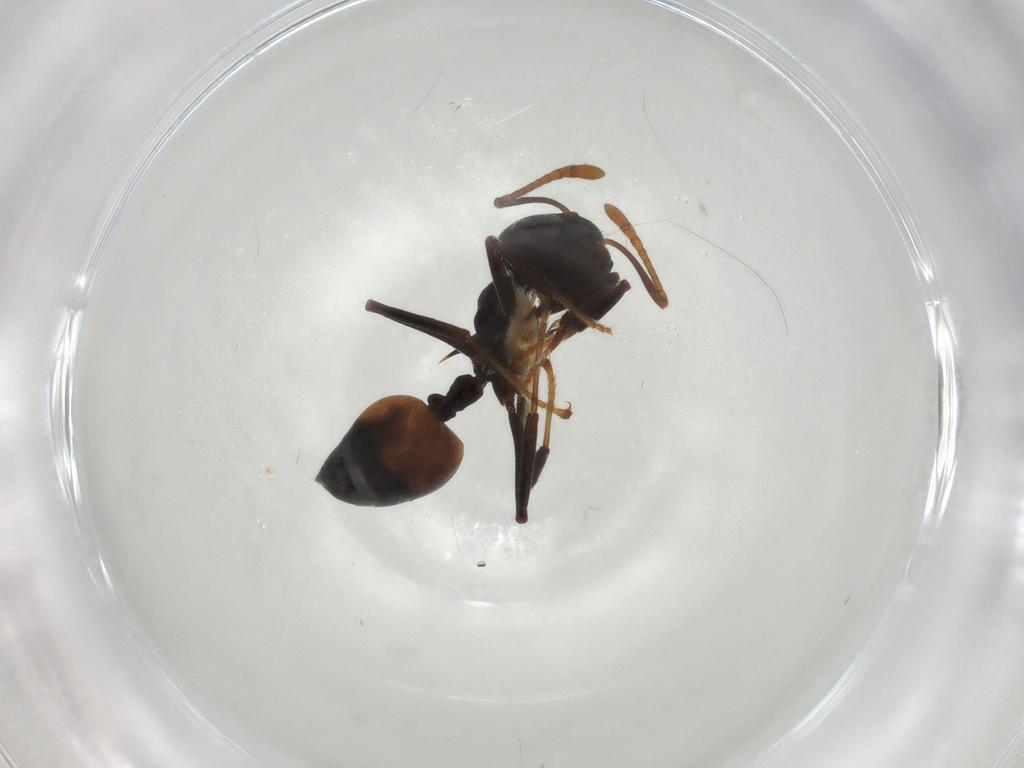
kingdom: Animalia
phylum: Arthropoda
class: Insecta
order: Hymenoptera
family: Formicidae
